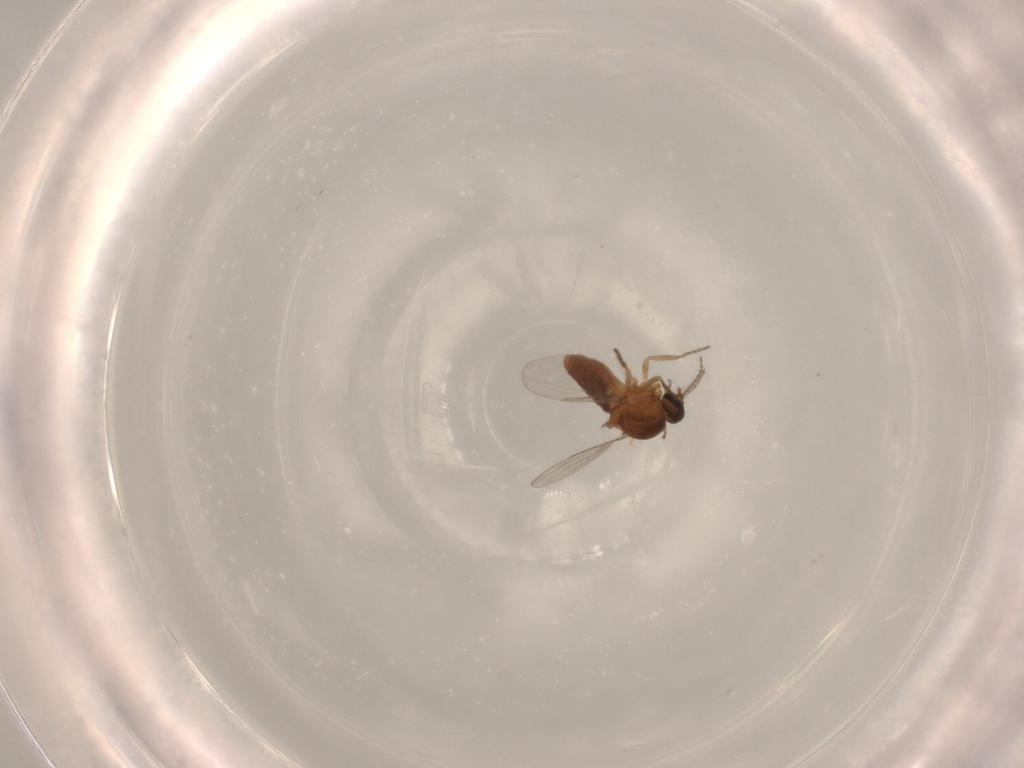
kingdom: Animalia
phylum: Arthropoda
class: Insecta
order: Diptera
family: Ceratopogonidae
